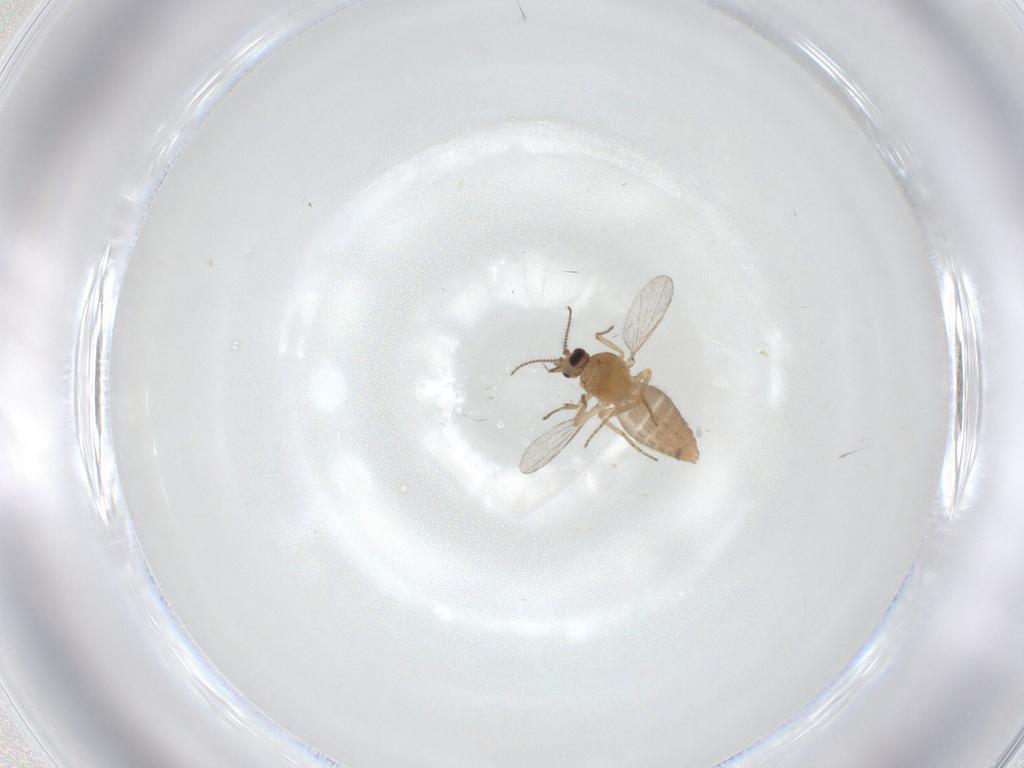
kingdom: Animalia
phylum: Arthropoda
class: Insecta
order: Diptera
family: Ceratopogonidae
